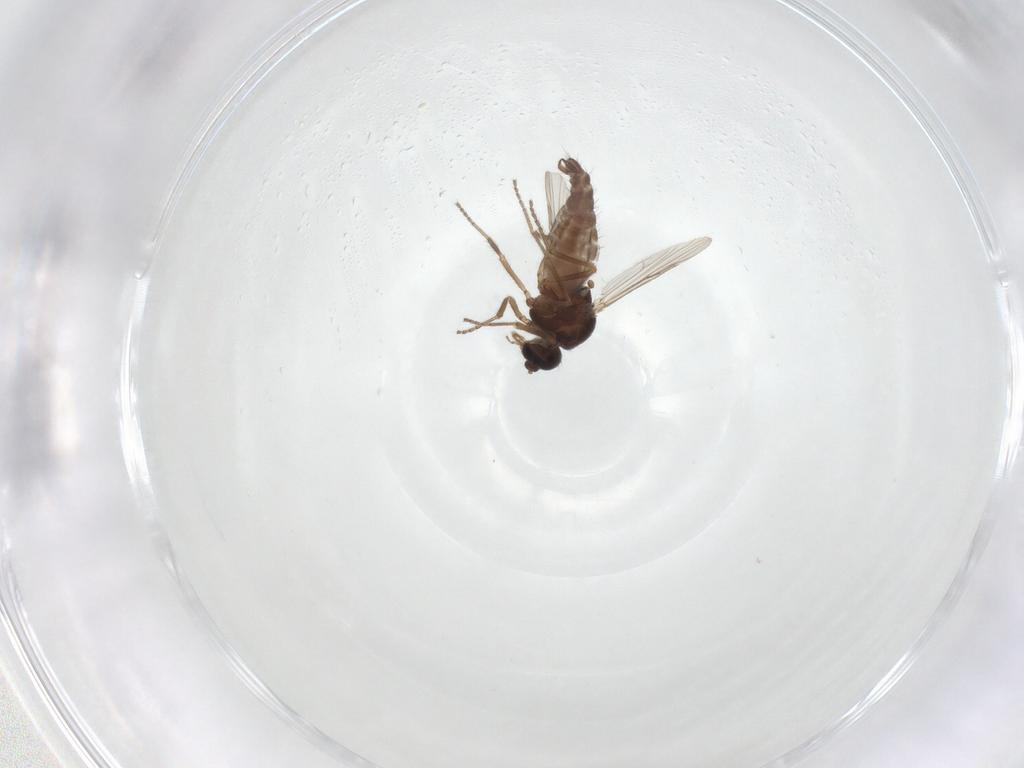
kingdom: Animalia
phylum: Arthropoda
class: Insecta
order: Diptera
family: Mycetophilidae
